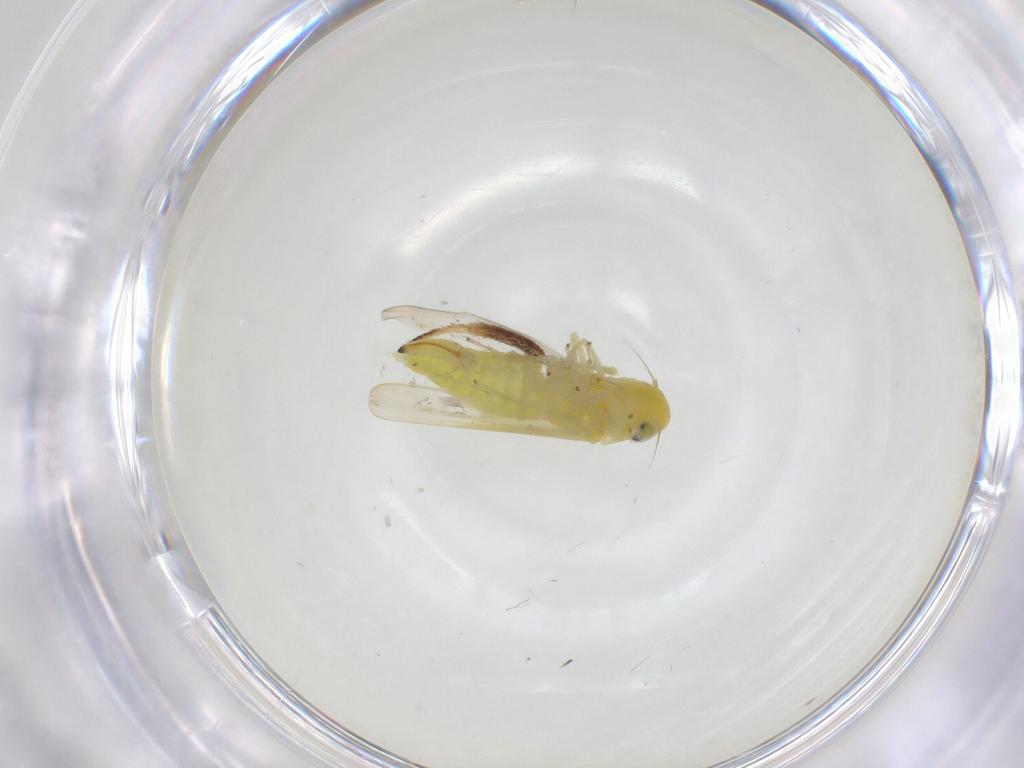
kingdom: Animalia
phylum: Arthropoda
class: Insecta
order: Hemiptera
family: Cicadellidae
